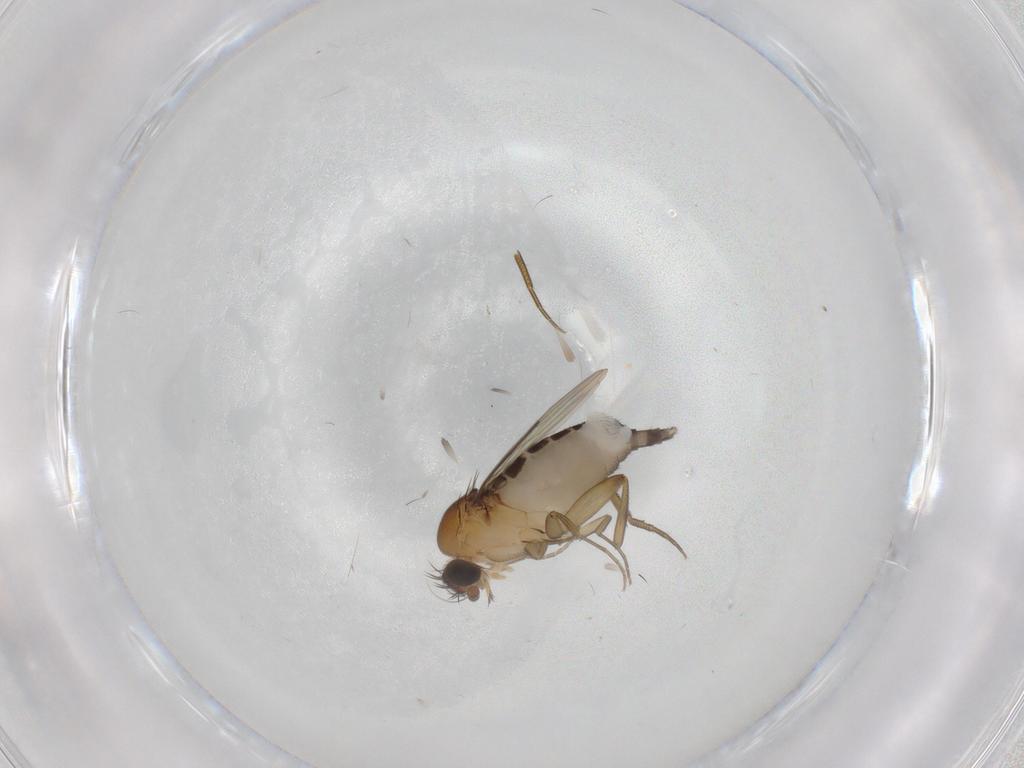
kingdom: Animalia
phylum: Arthropoda
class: Insecta
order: Diptera
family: Phoridae
